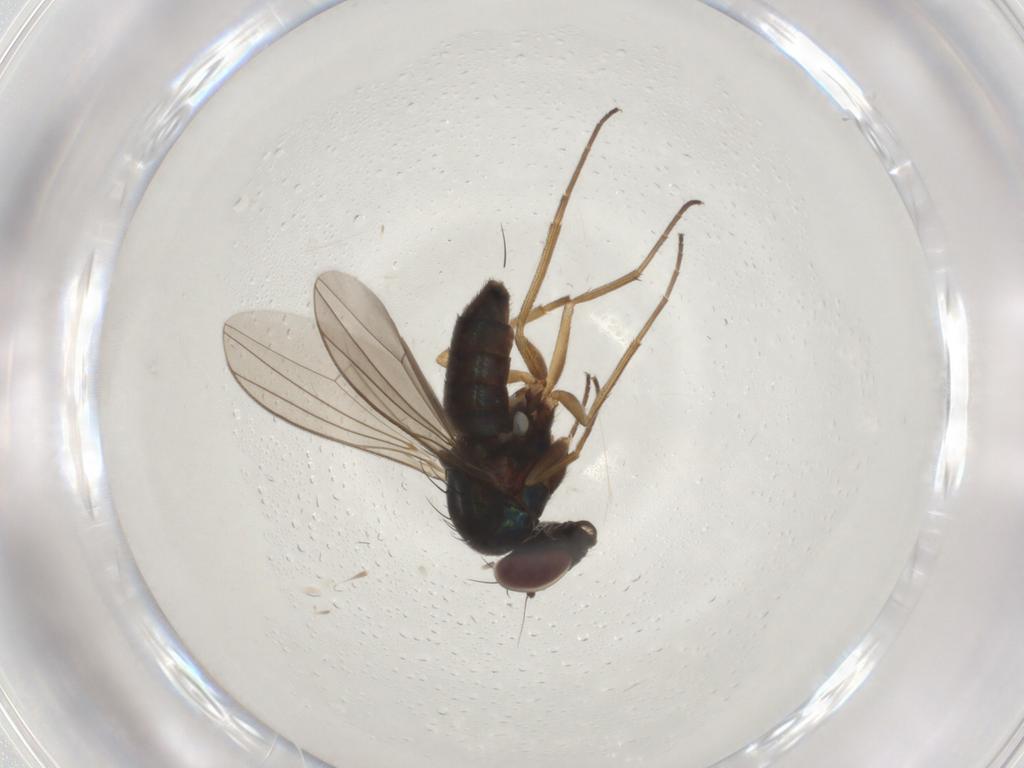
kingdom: Animalia
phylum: Arthropoda
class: Insecta
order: Diptera
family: Dolichopodidae
